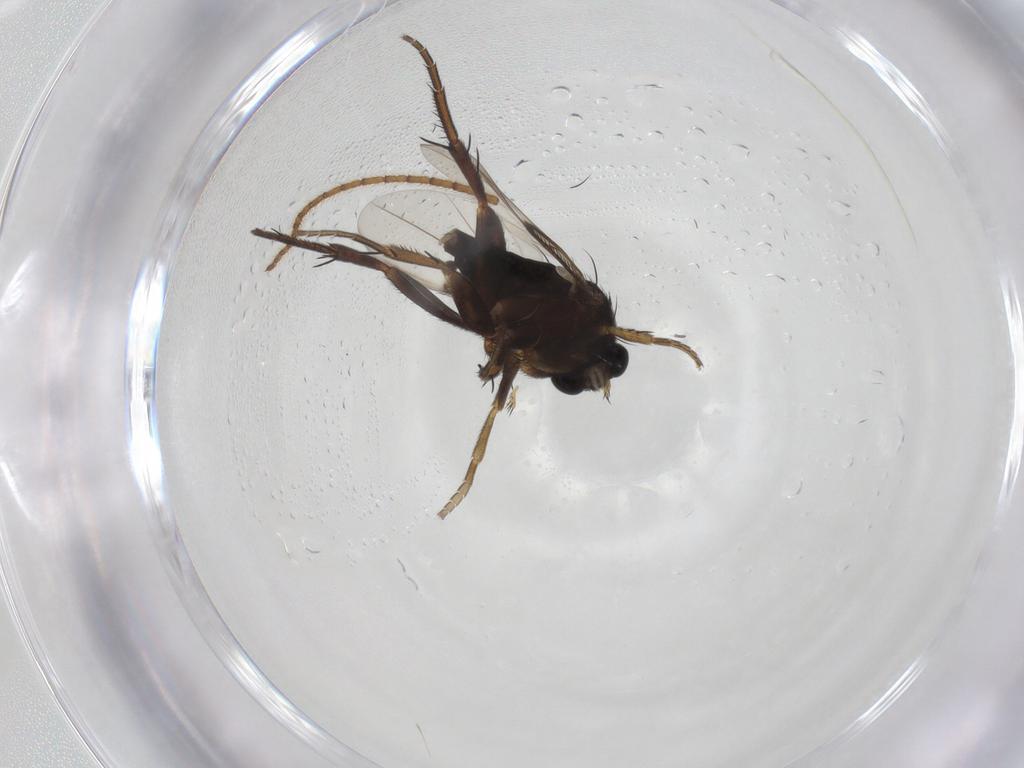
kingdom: Animalia
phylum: Arthropoda
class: Insecta
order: Diptera
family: Phoridae
